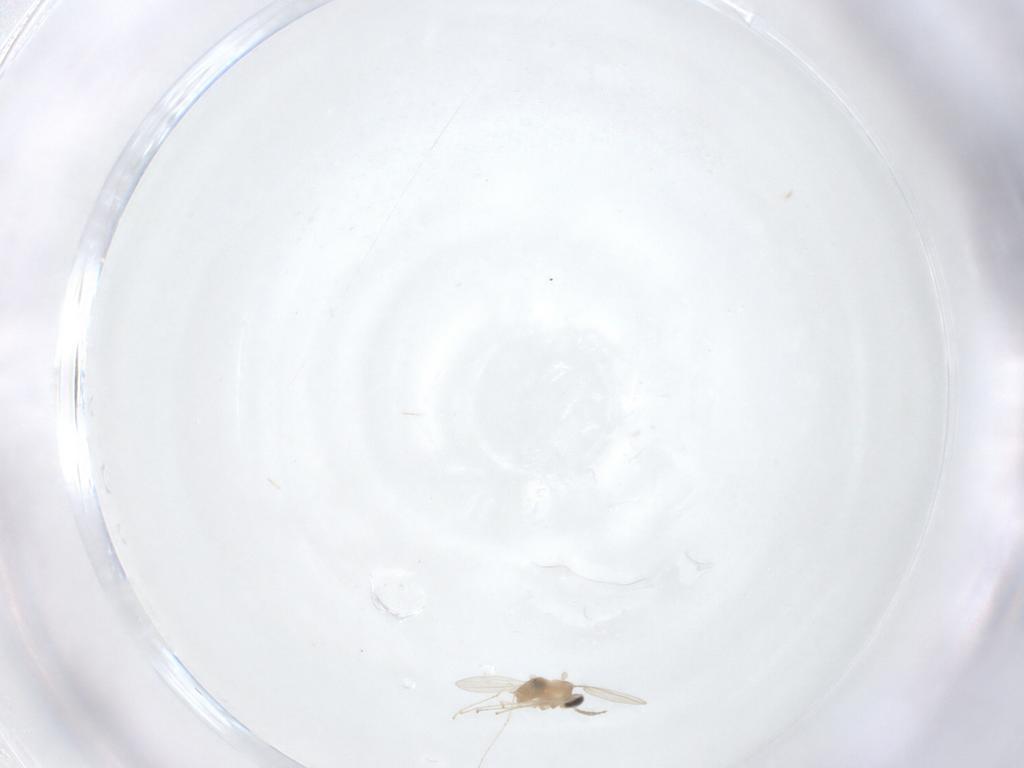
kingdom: Animalia
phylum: Arthropoda
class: Insecta
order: Diptera
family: Cecidomyiidae
